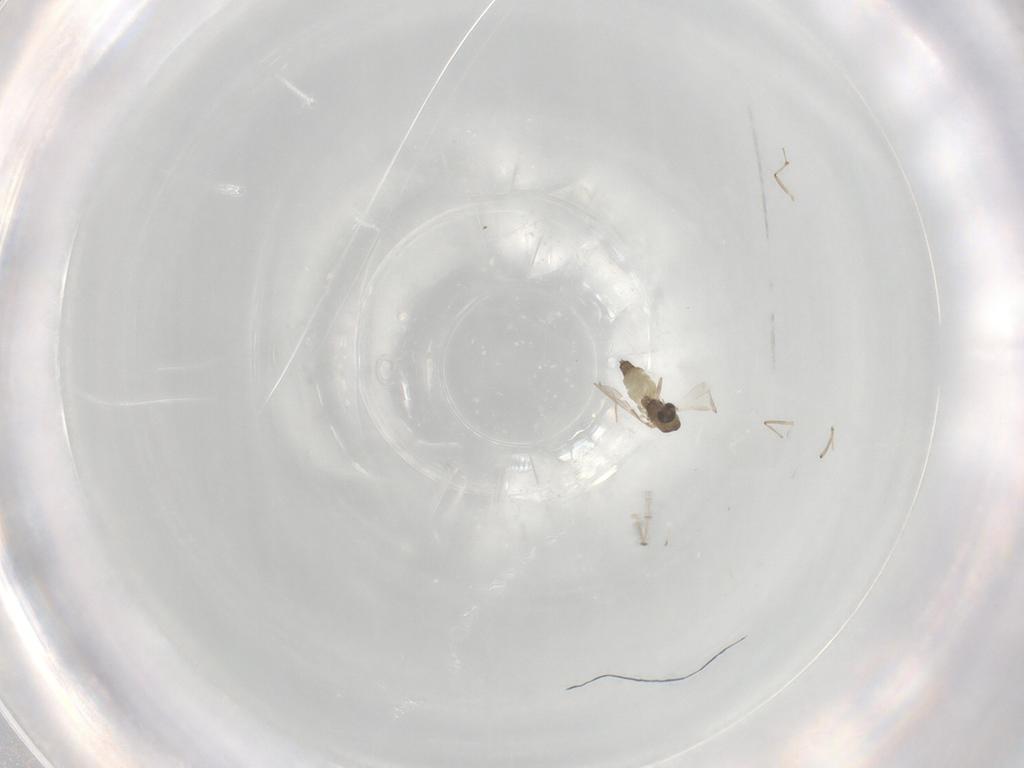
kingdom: Animalia
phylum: Arthropoda
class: Insecta
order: Diptera
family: Chironomidae
